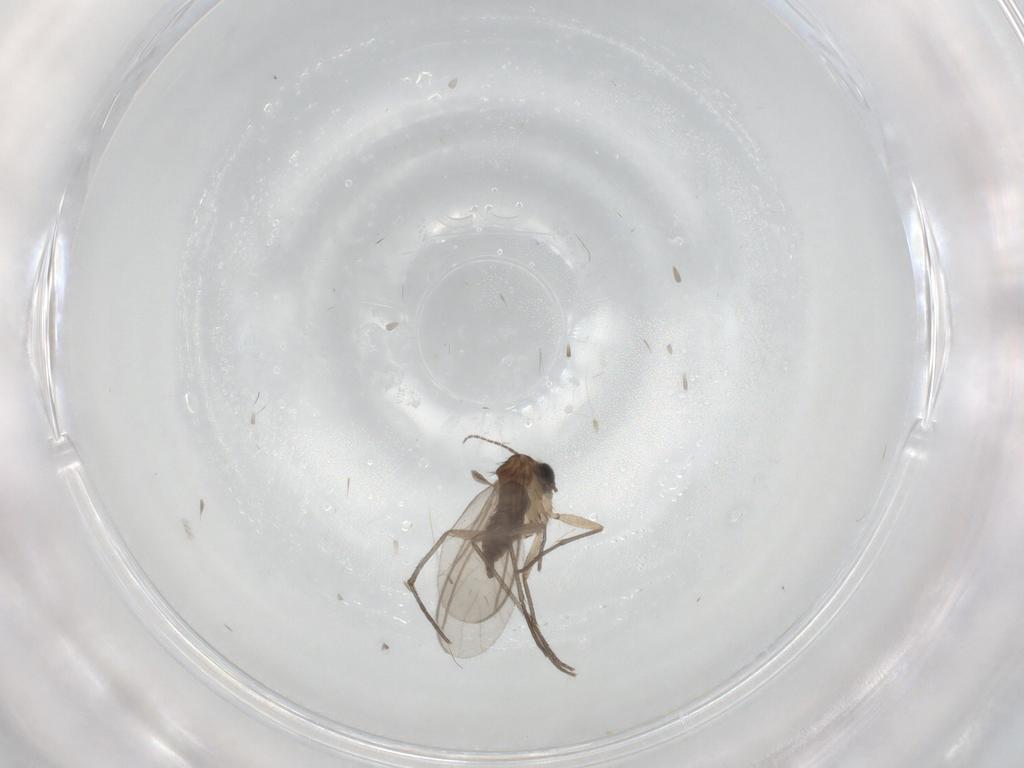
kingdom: Animalia
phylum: Arthropoda
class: Insecta
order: Diptera
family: Sciaridae
